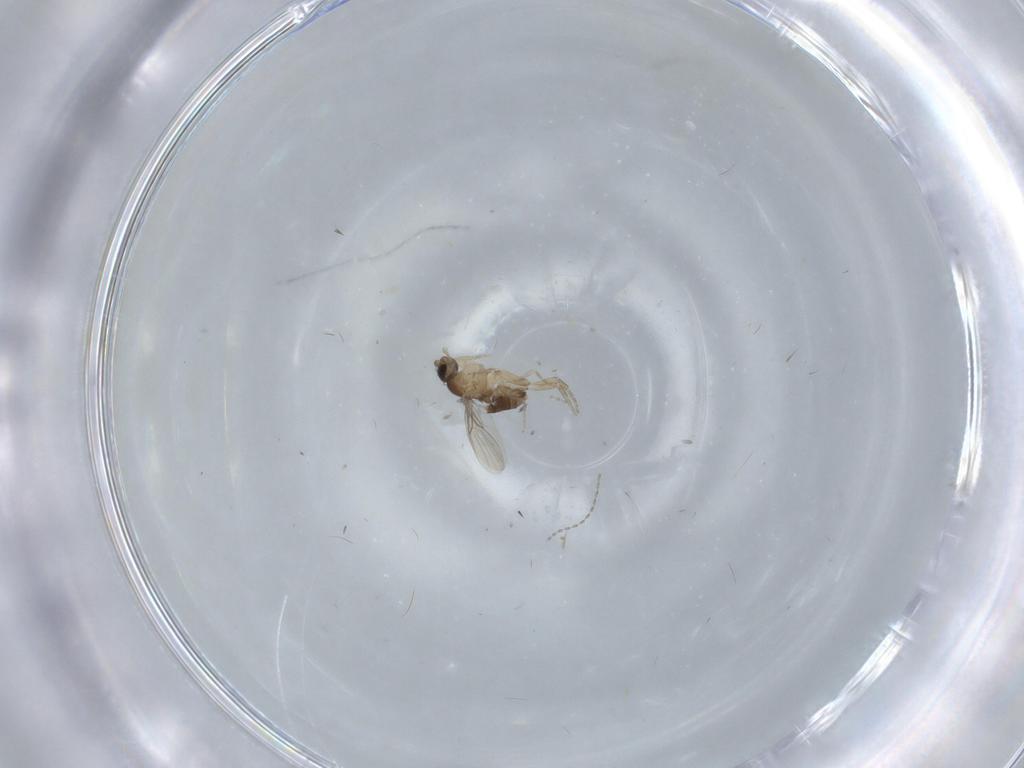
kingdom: Animalia
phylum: Arthropoda
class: Insecta
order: Diptera
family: Phoridae
